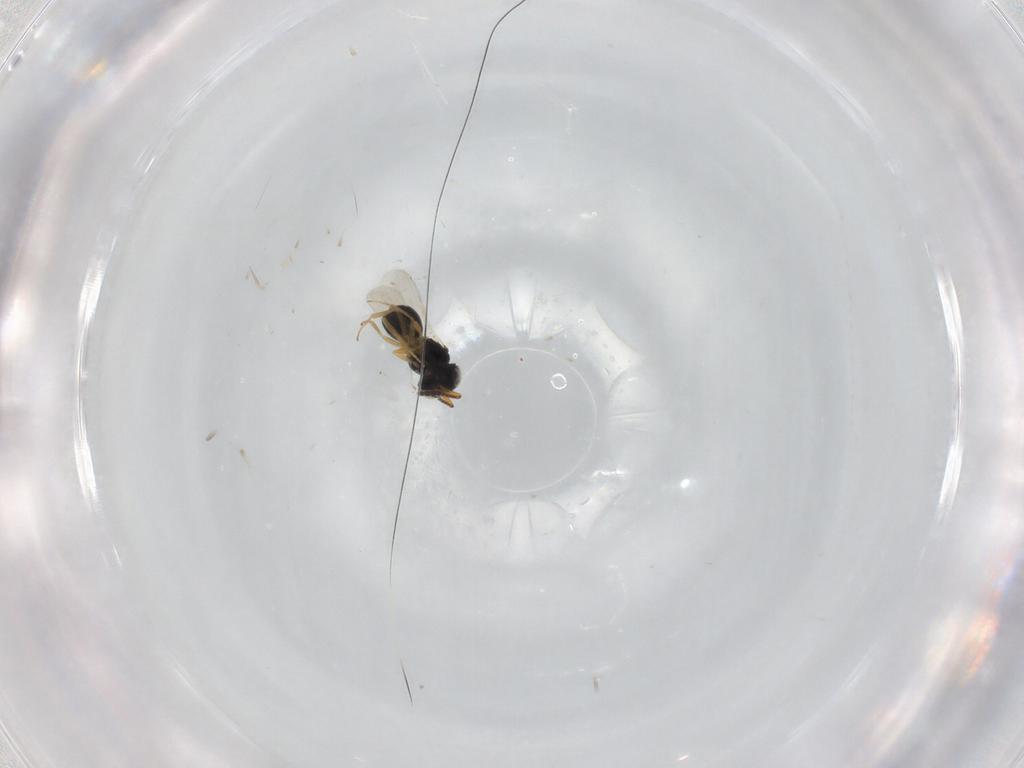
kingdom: Animalia
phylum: Arthropoda
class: Insecta
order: Hymenoptera
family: Scelionidae
